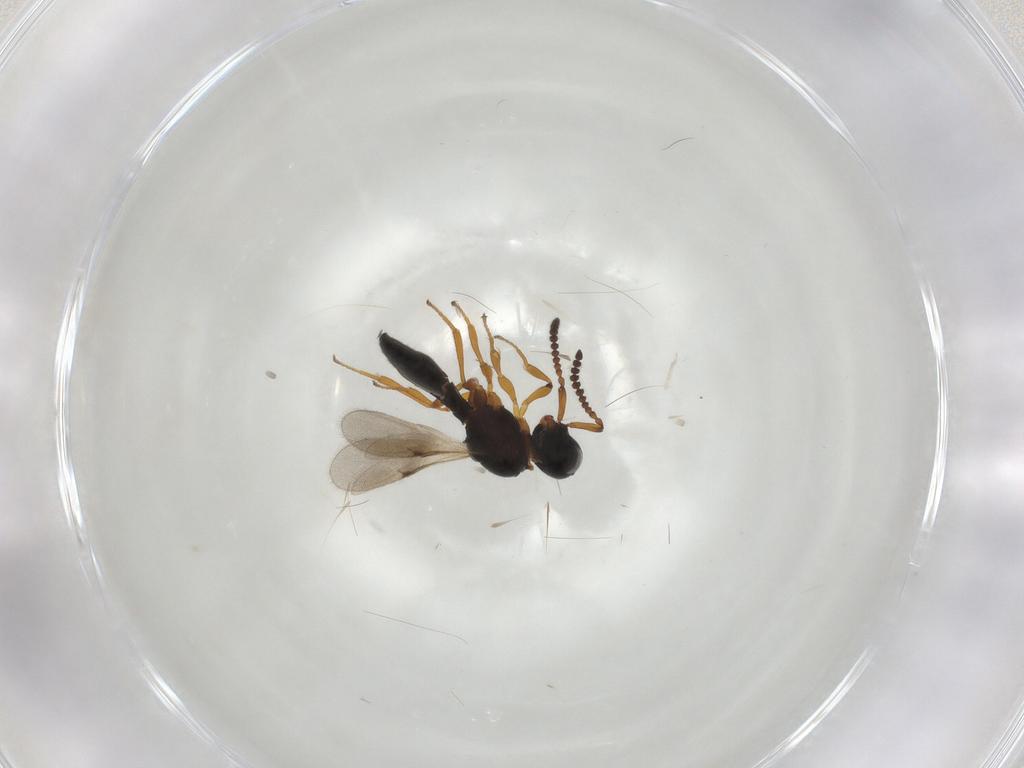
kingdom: Animalia
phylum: Arthropoda
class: Insecta
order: Hymenoptera
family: Scelionidae
